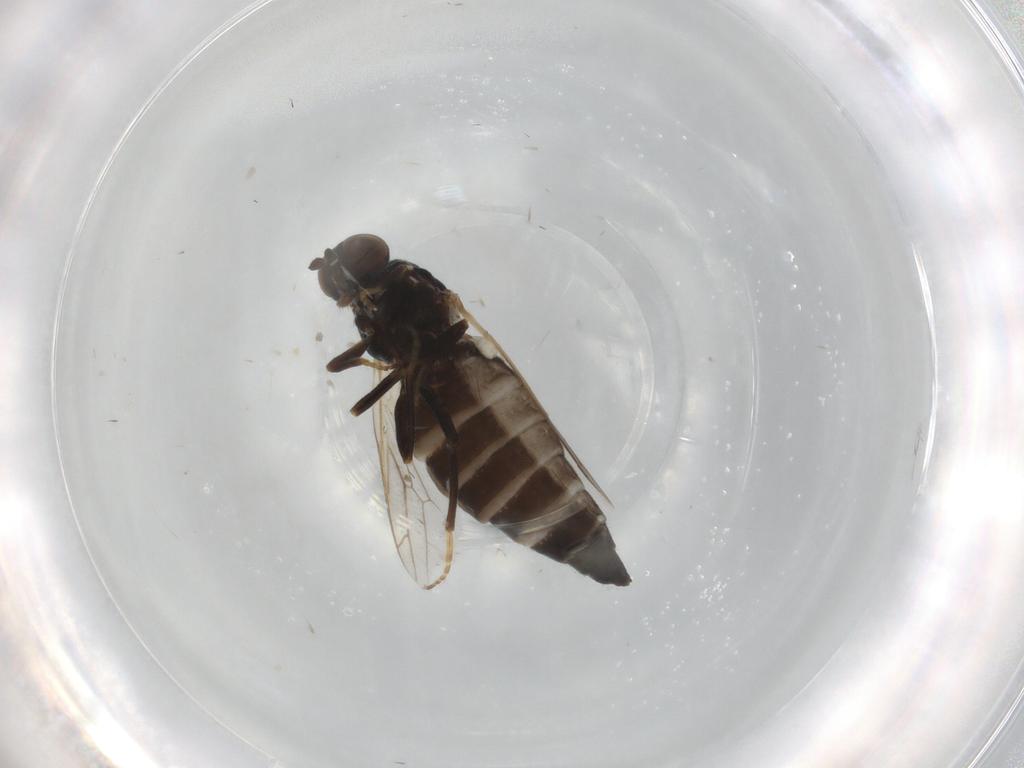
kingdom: Animalia
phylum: Arthropoda
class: Insecta
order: Diptera
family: Scenopinidae
